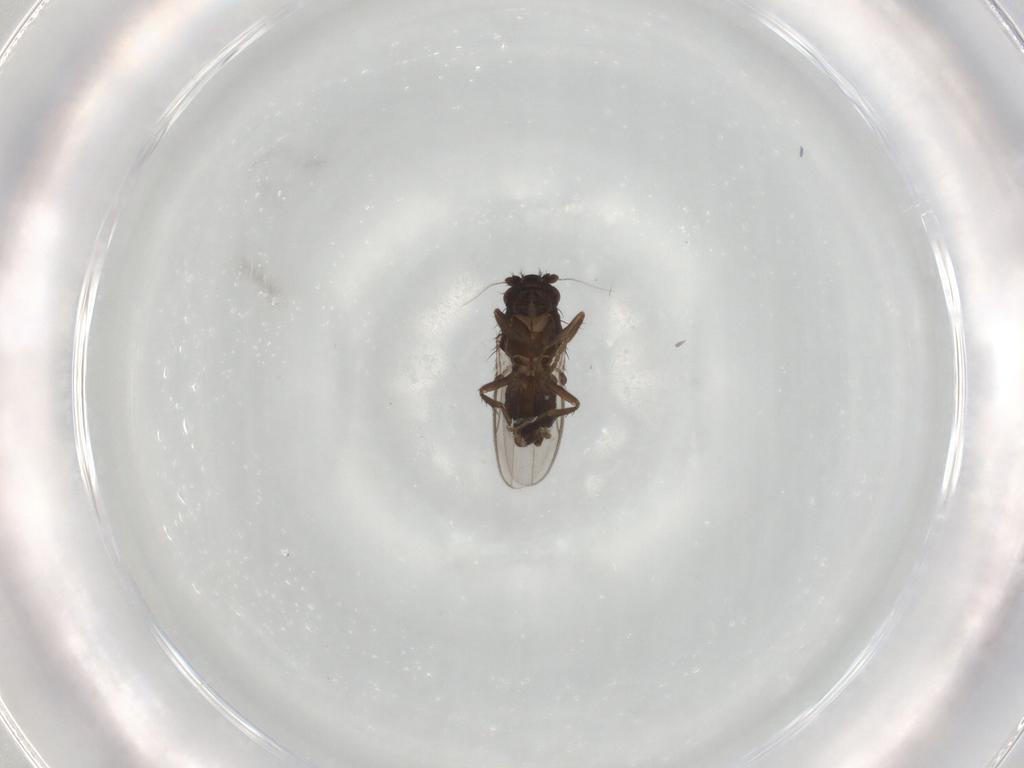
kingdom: Animalia
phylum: Arthropoda
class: Insecta
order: Diptera
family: Sphaeroceridae
